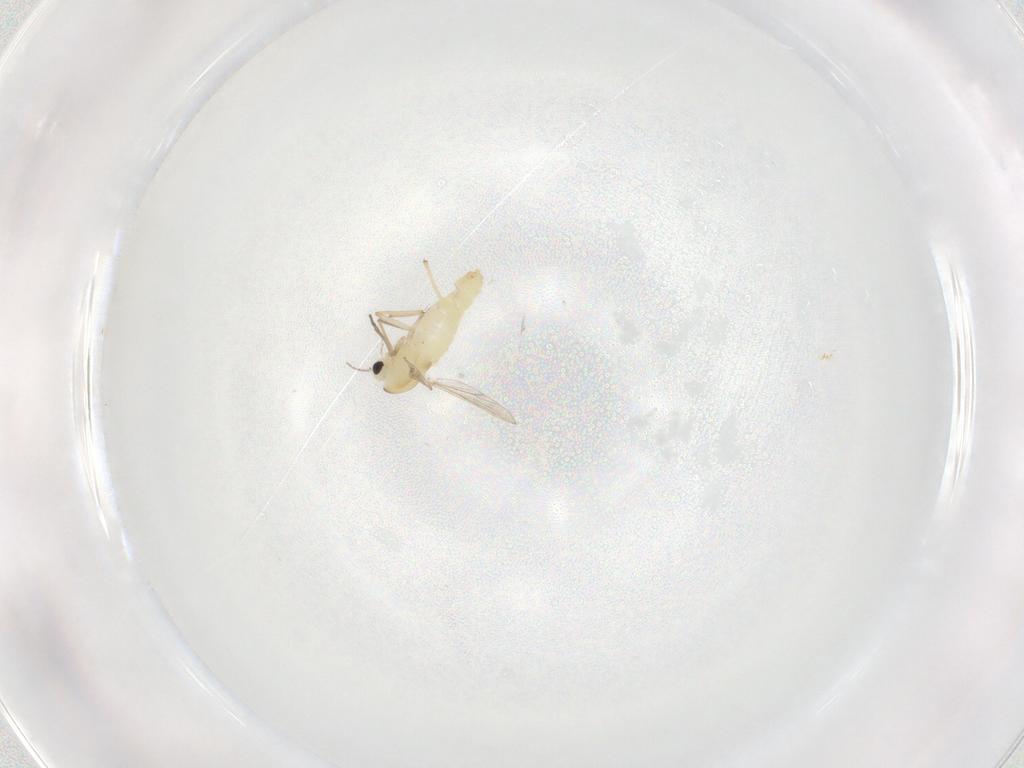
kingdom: Animalia
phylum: Arthropoda
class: Insecta
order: Diptera
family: Chironomidae
